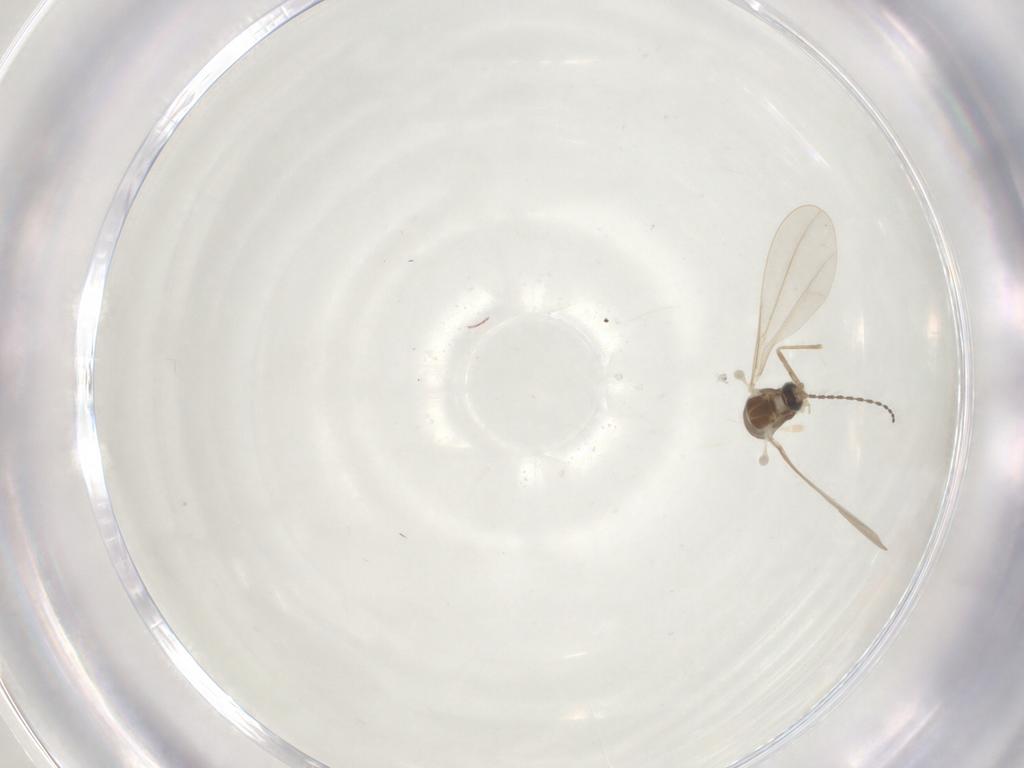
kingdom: Animalia
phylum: Arthropoda
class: Insecta
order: Diptera
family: Cecidomyiidae
